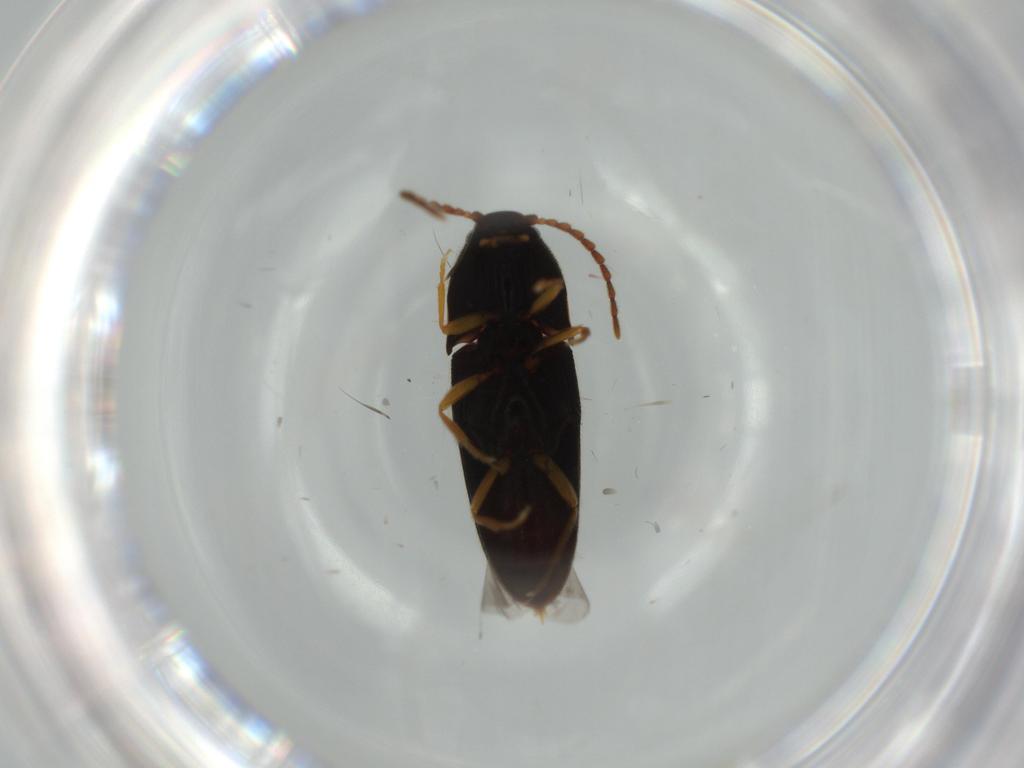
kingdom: Animalia
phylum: Arthropoda
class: Insecta
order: Coleoptera
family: Elateridae
